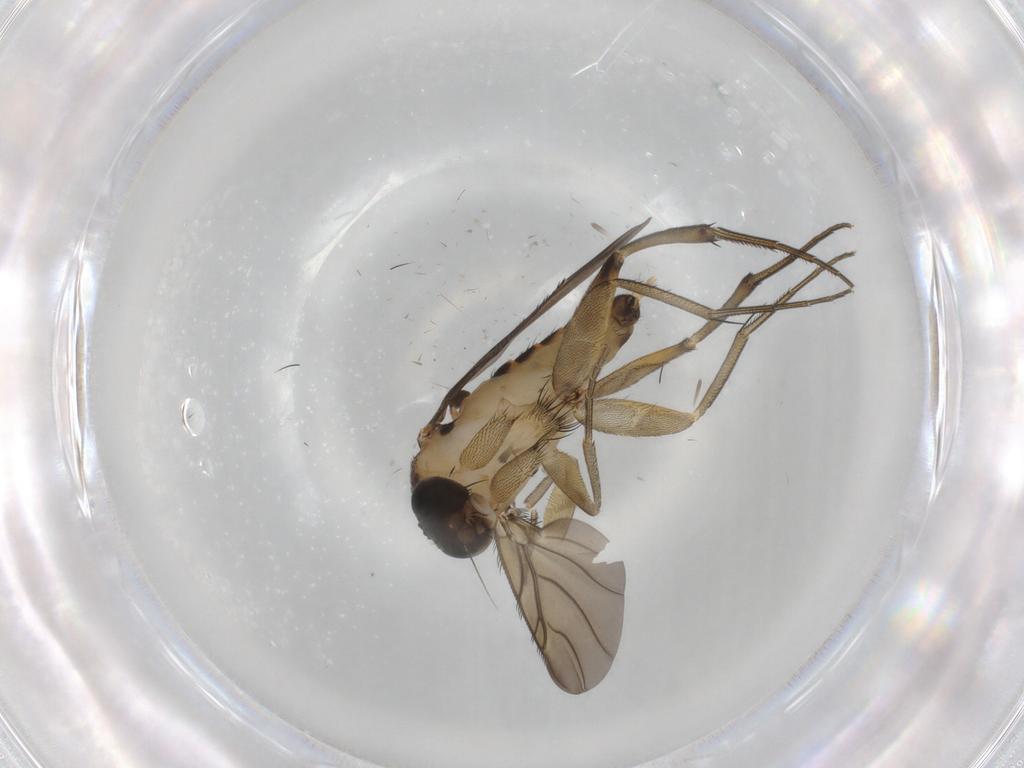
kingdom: Animalia
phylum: Arthropoda
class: Insecta
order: Diptera
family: Phoridae
